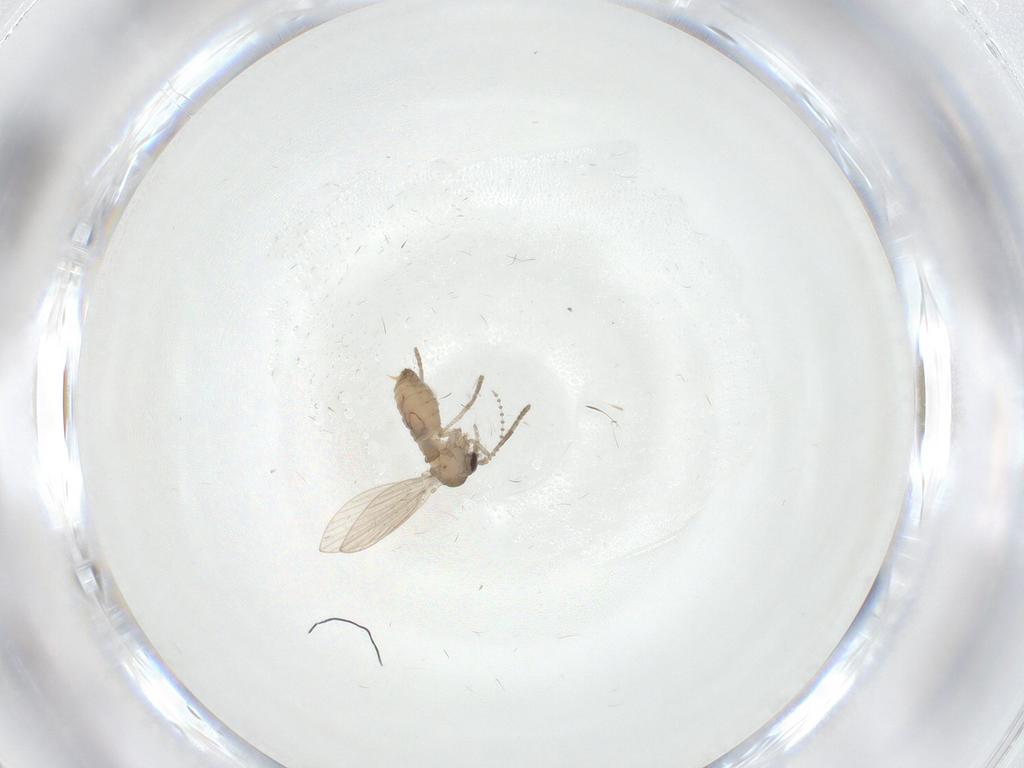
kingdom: Animalia
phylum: Arthropoda
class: Insecta
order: Diptera
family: Psychodidae
